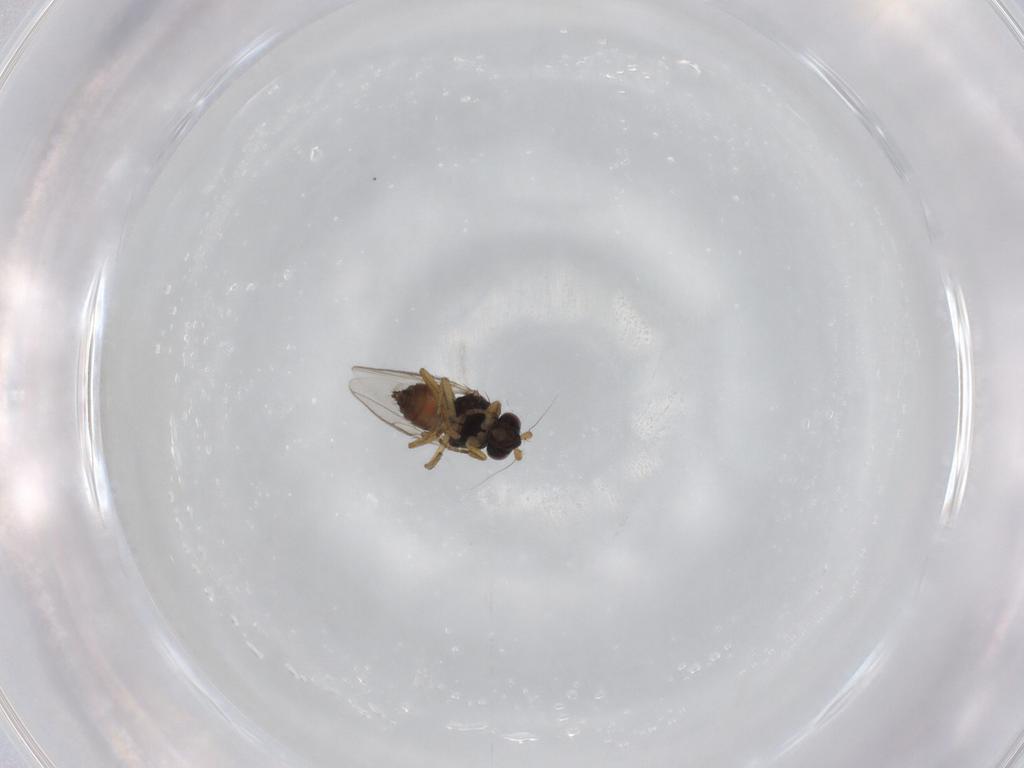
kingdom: Animalia
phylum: Arthropoda
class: Insecta
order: Diptera
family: Sphaeroceridae
